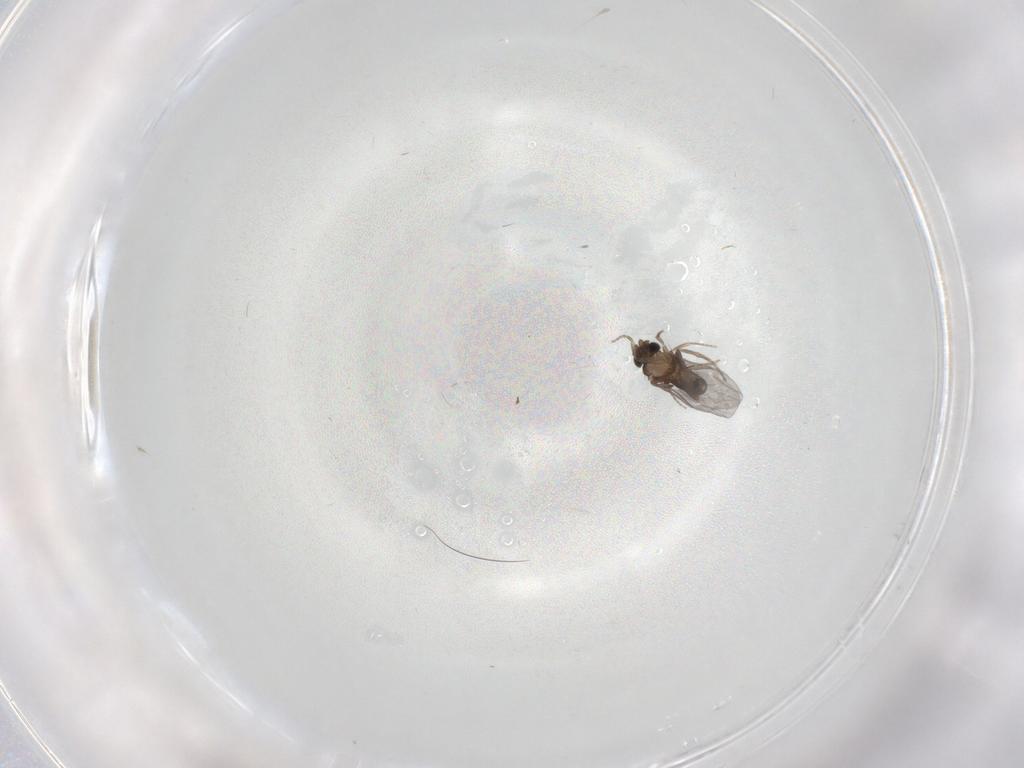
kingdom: Animalia
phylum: Arthropoda
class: Insecta
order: Diptera
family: Chironomidae
